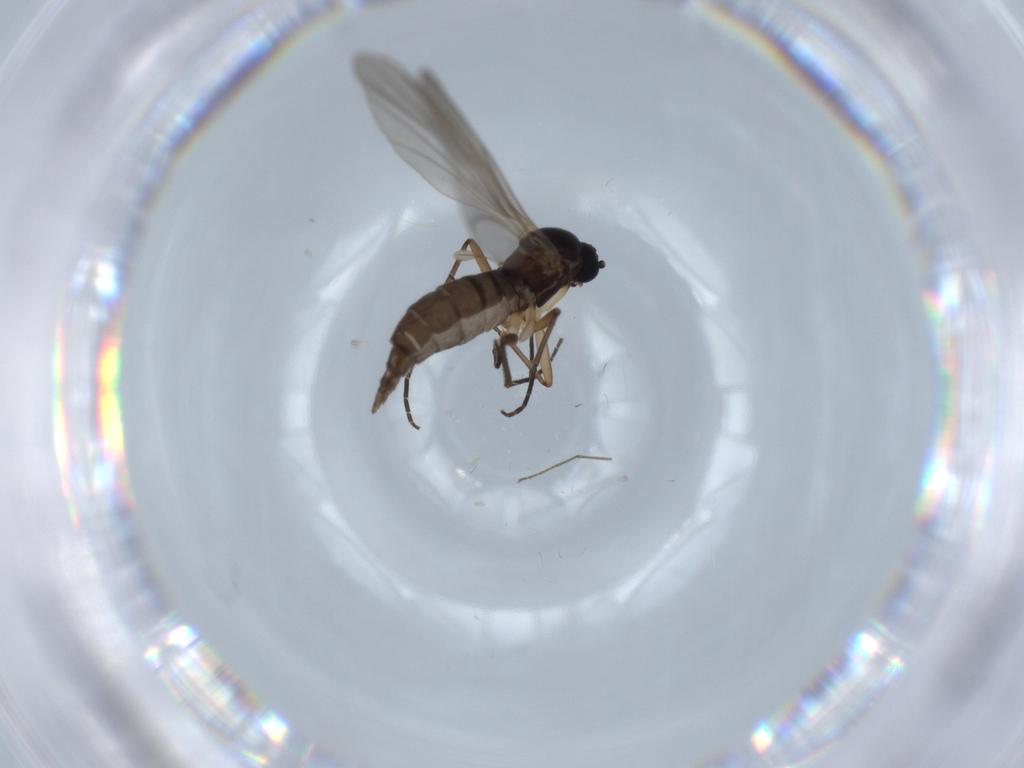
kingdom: Animalia
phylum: Arthropoda
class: Insecta
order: Diptera
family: Sciaridae
